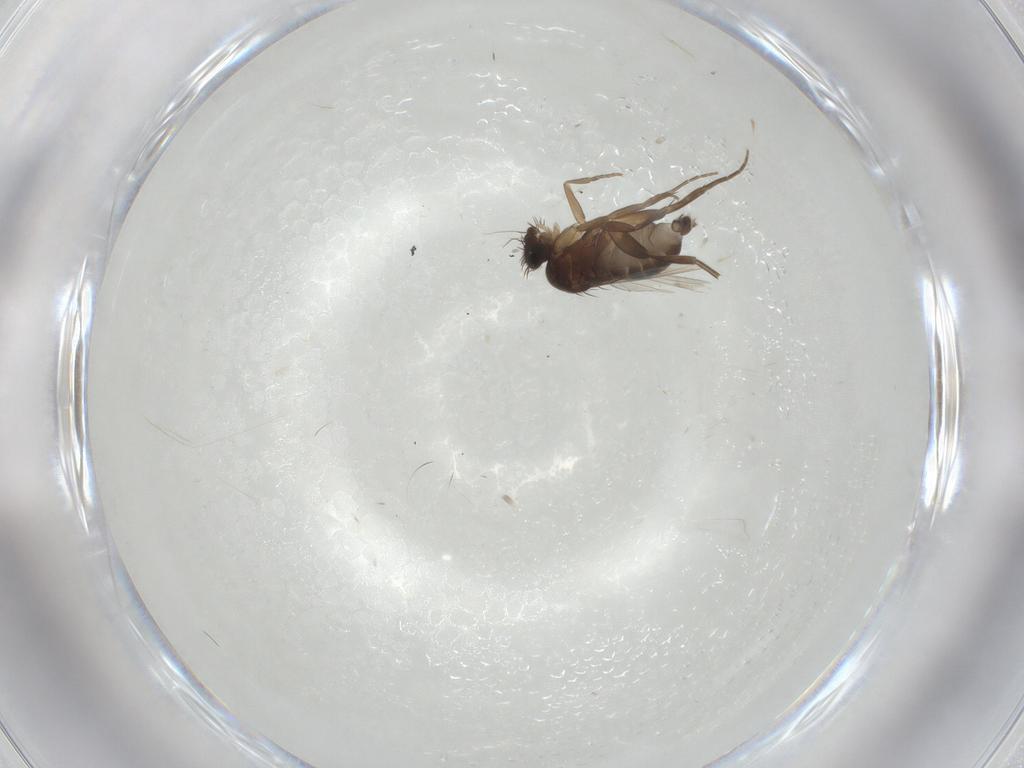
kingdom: Animalia
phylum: Arthropoda
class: Insecta
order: Diptera
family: Phoridae
